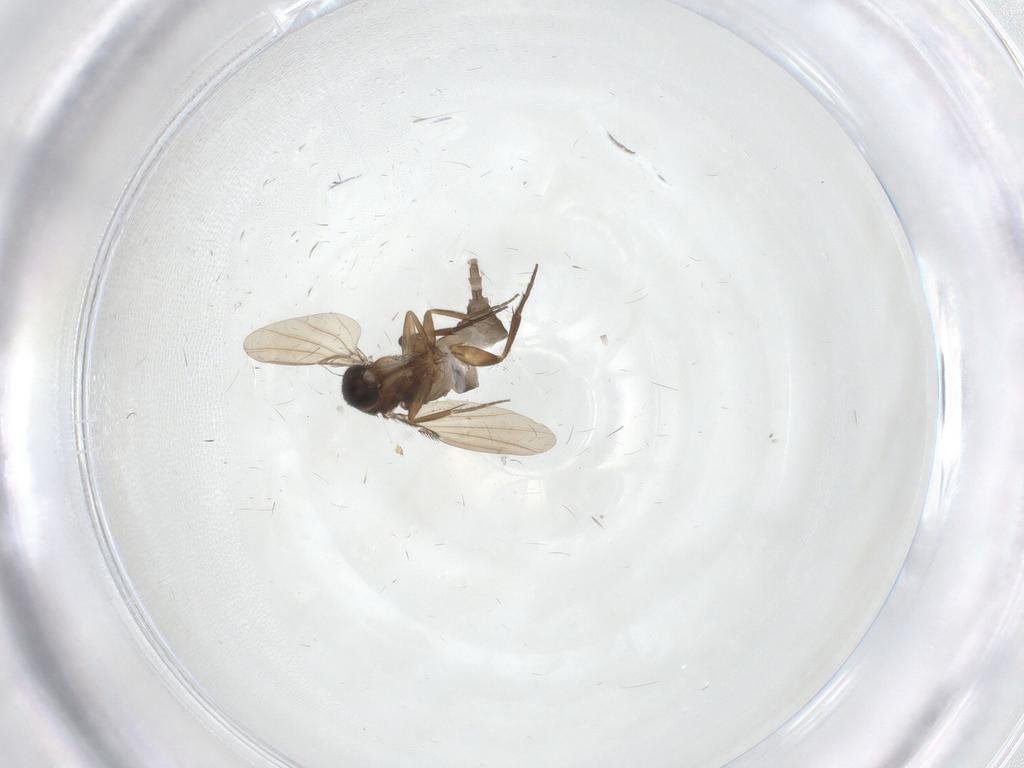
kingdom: Animalia
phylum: Arthropoda
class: Insecta
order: Diptera
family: Phoridae
